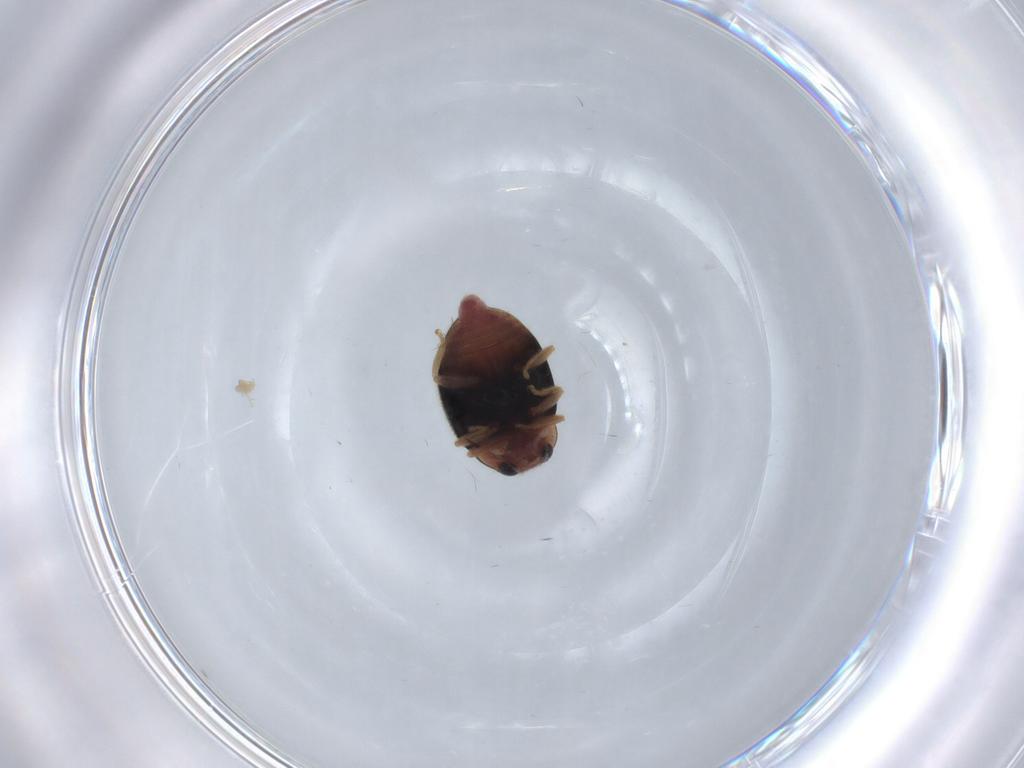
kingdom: Animalia
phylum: Arthropoda
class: Insecta
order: Coleoptera
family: Coccinellidae
